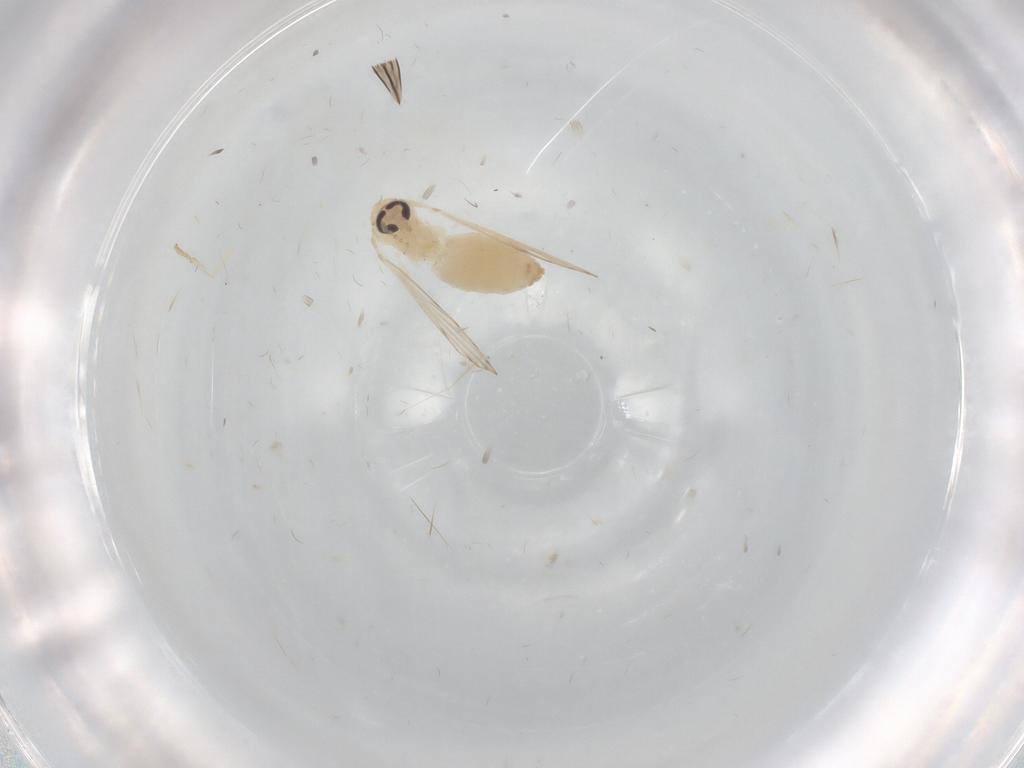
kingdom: Animalia
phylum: Arthropoda
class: Insecta
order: Diptera
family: Psychodidae
